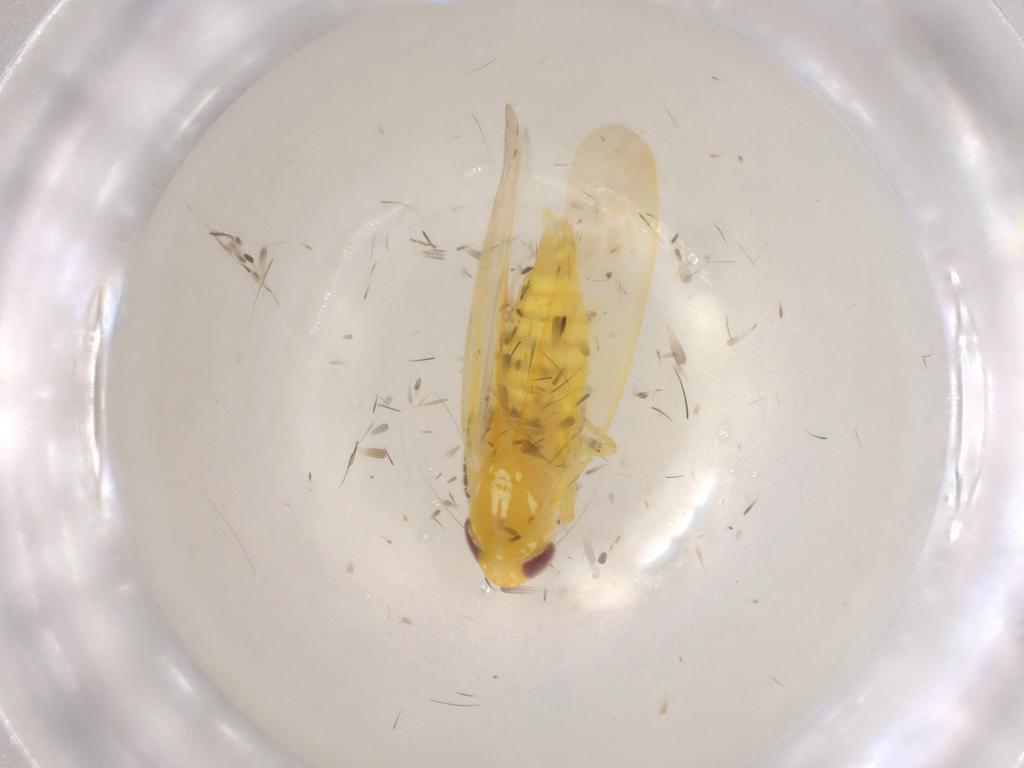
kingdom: Animalia
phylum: Arthropoda
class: Insecta
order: Hemiptera
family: Cicadellidae
